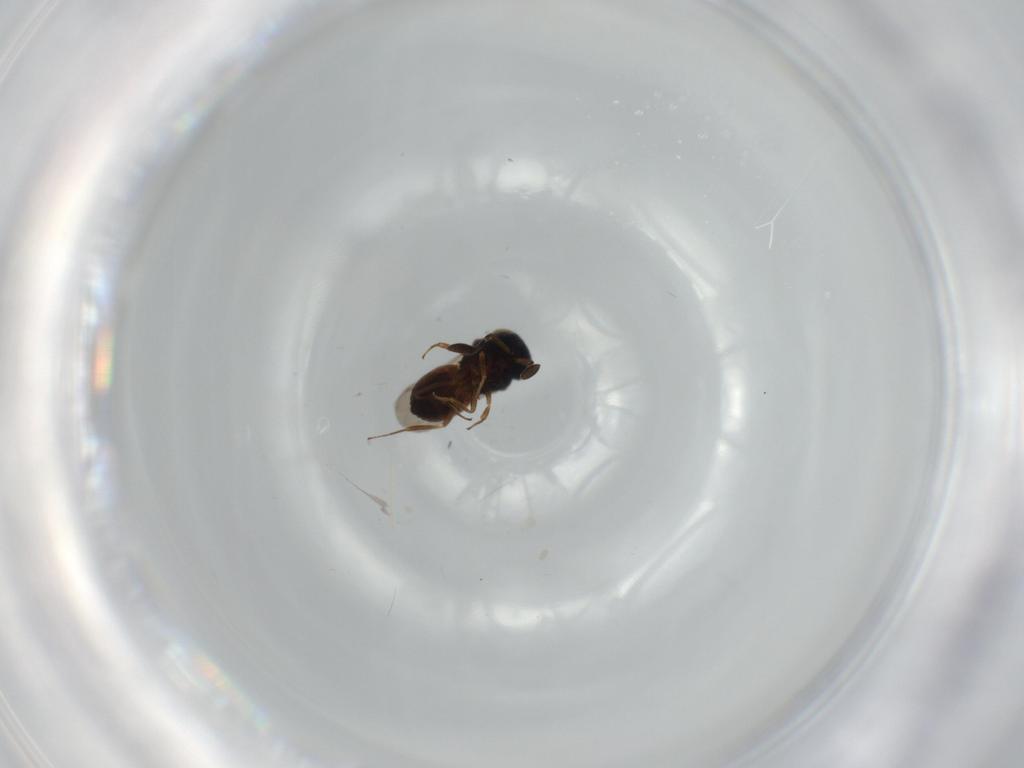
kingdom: Animalia
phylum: Arthropoda
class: Insecta
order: Hymenoptera
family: Scelionidae
